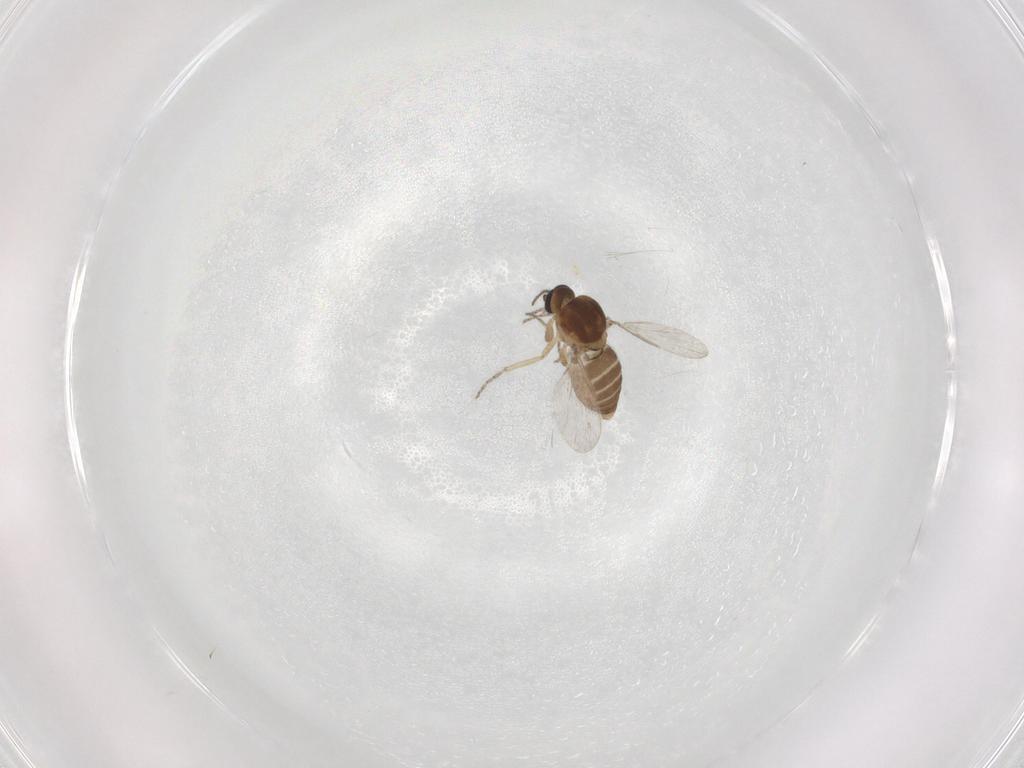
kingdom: Animalia
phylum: Arthropoda
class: Insecta
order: Diptera
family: Ceratopogonidae
